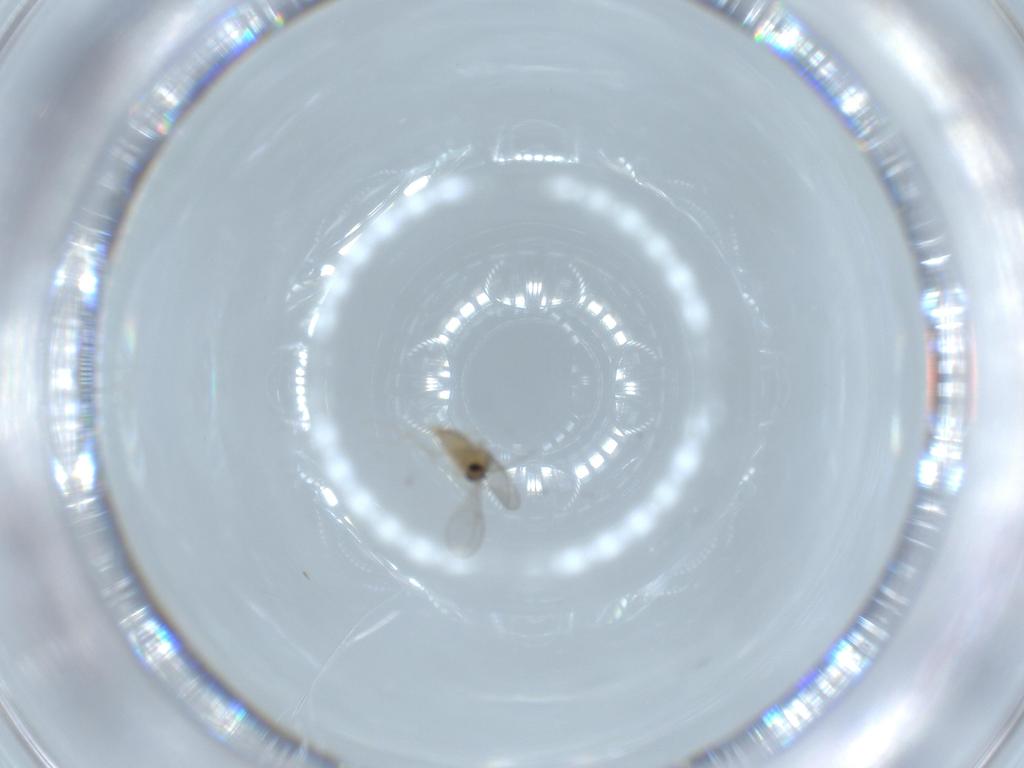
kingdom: Animalia
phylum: Arthropoda
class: Insecta
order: Diptera
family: Cecidomyiidae
